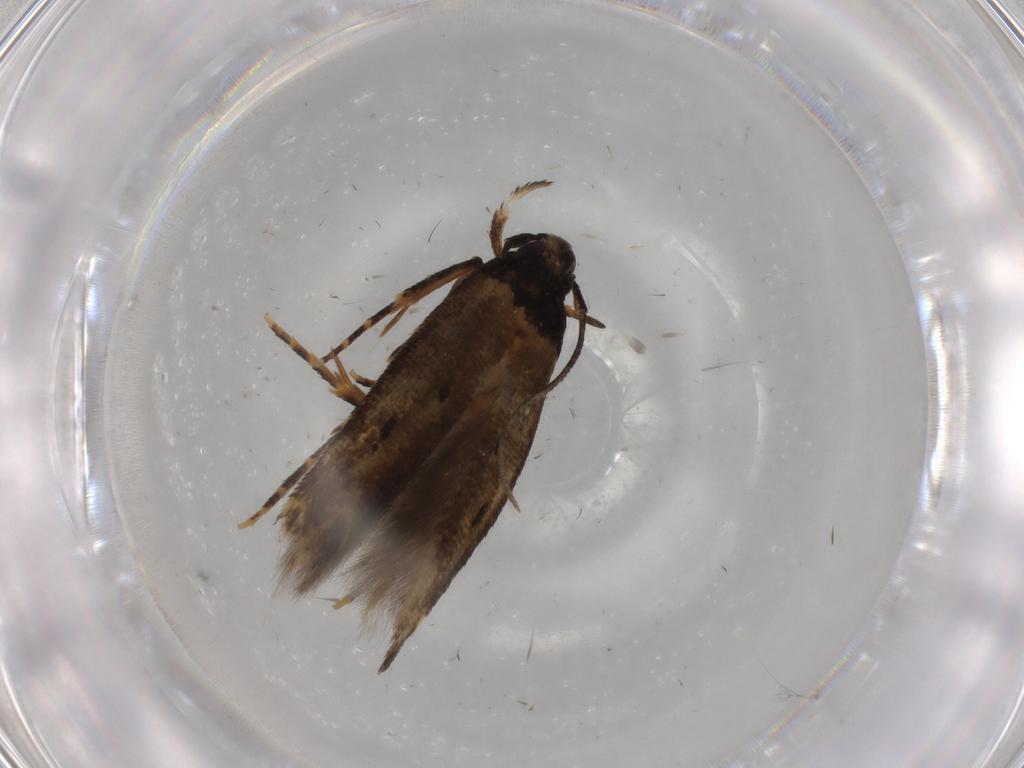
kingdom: Animalia
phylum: Arthropoda
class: Insecta
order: Lepidoptera
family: Cosmopterigidae
